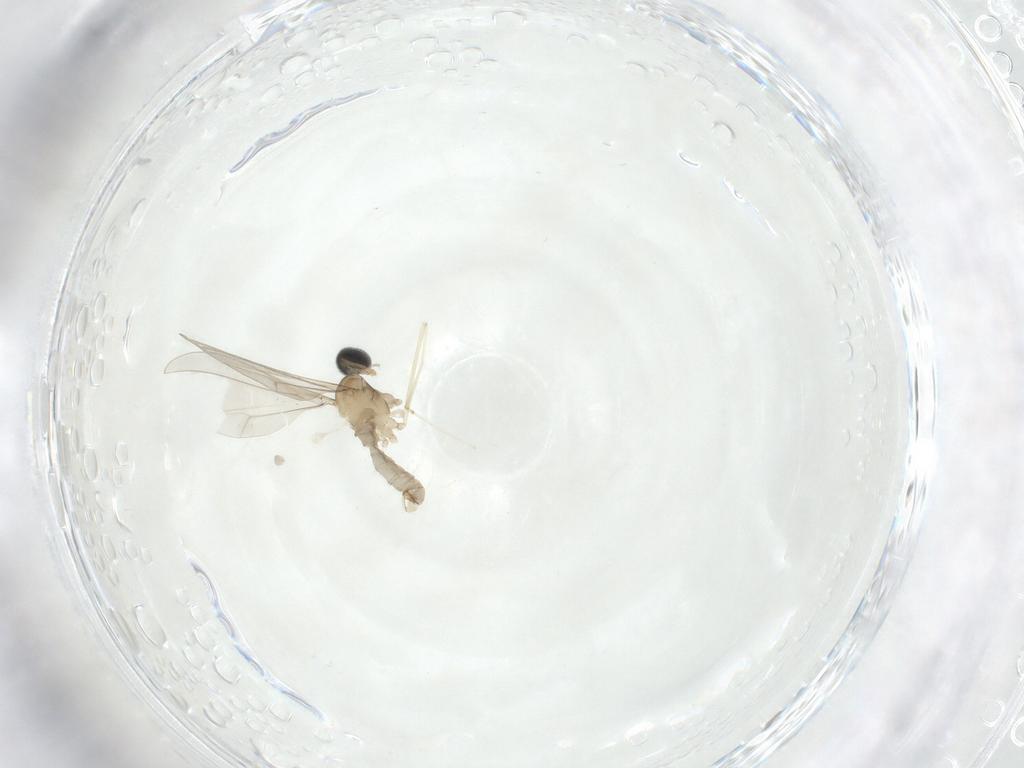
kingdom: Animalia
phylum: Arthropoda
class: Insecta
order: Diptera
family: Cecidomyiidae
